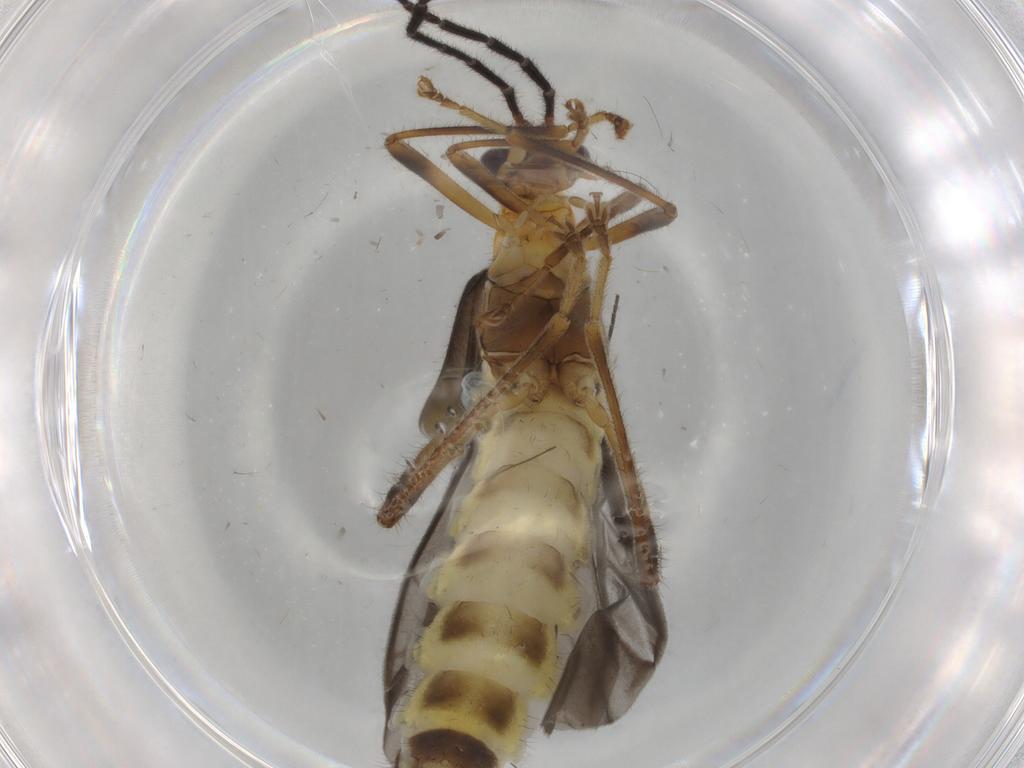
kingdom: Animalia
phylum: Arthropoda
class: Insecta
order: Coleoptera
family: Cantharidae
